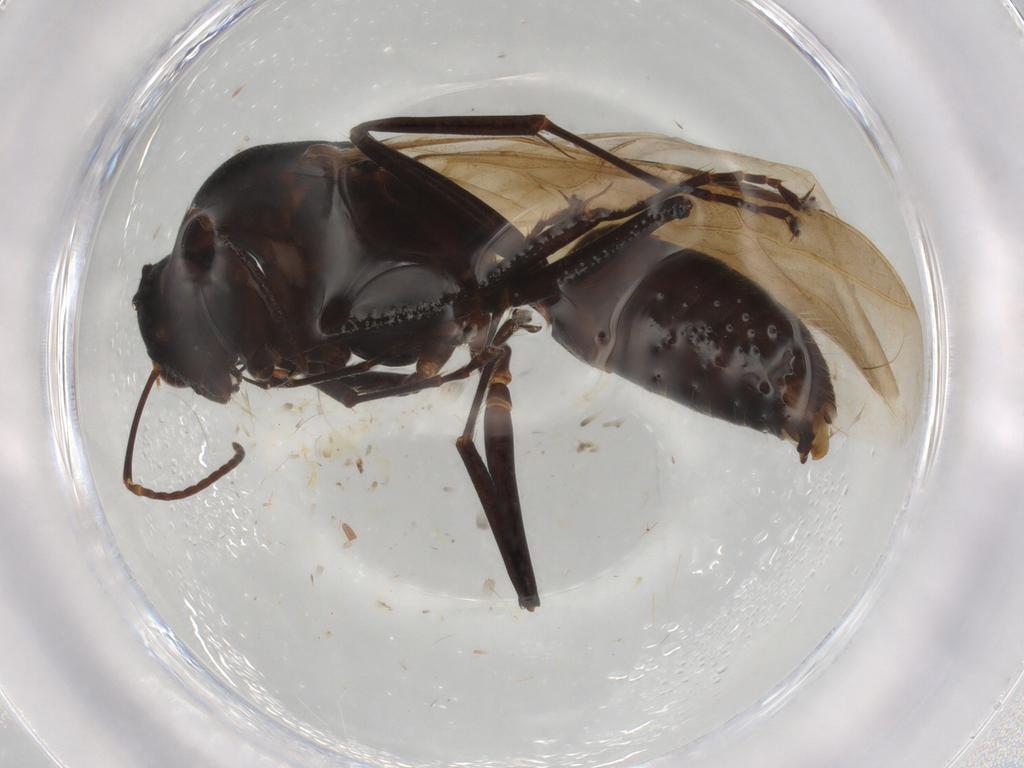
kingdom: Animalia
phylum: Arthropoda
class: Insecta
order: Hymenoptera
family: Formicidae
